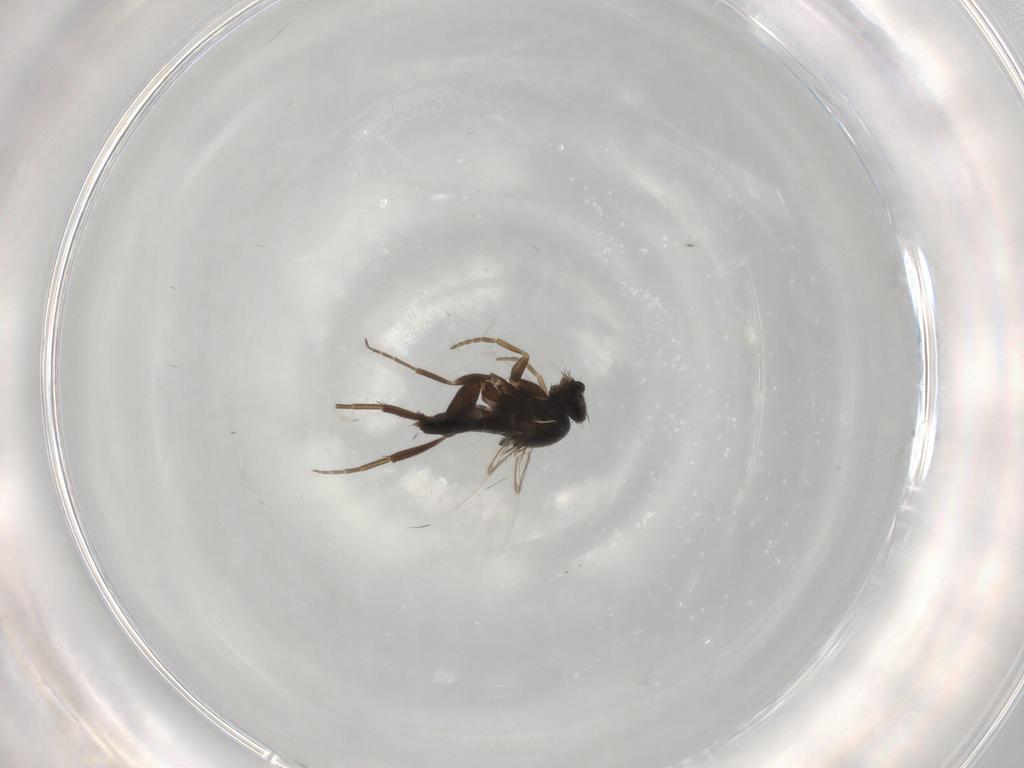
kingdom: Animalia
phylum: Arthropoda
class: Insecta
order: Diptera
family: Phoridae
